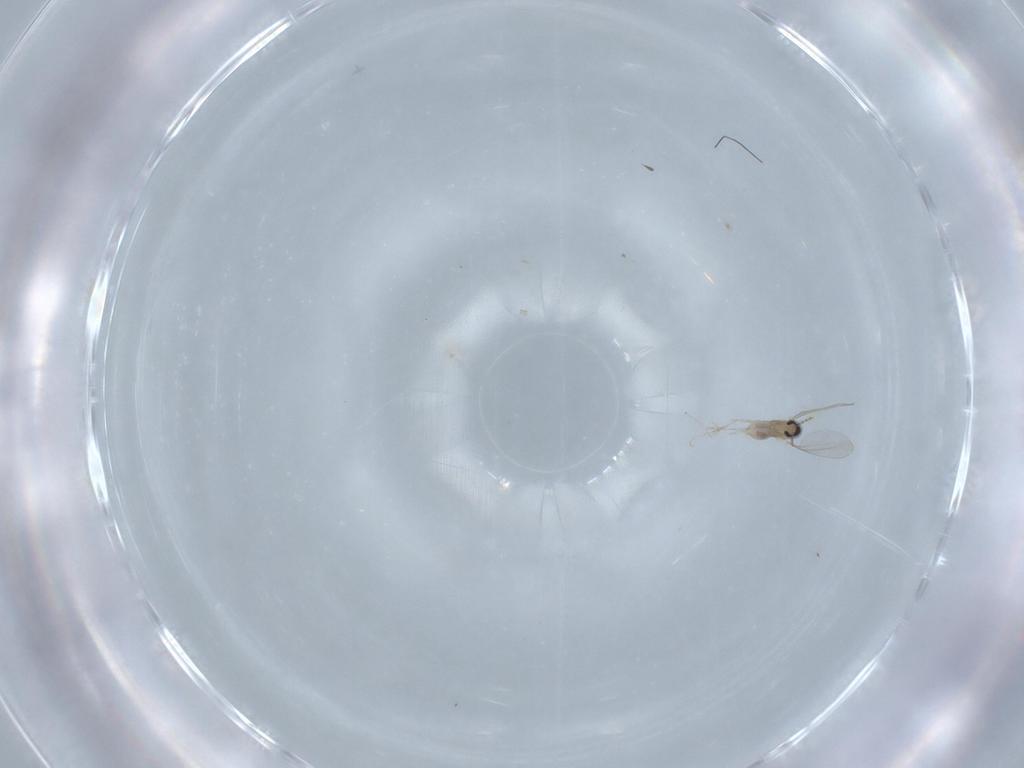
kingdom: Animalia
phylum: Arthropoda
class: Insecta
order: Diptera
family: Cecidomyiidae
